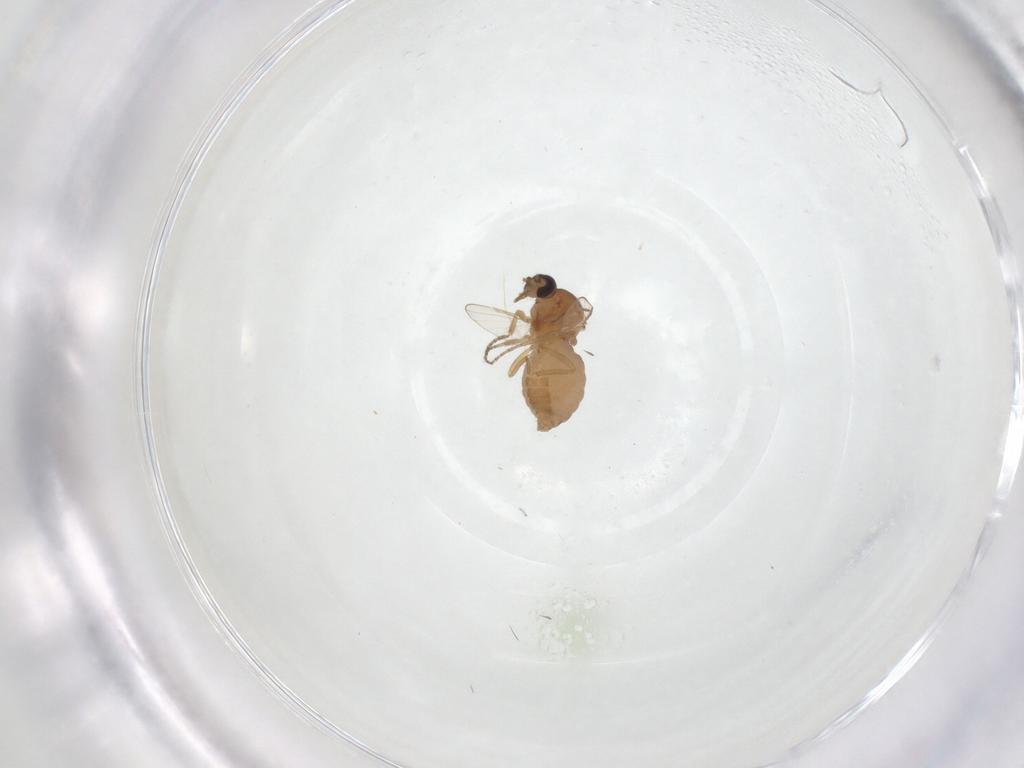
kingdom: Animalia
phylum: Arthropoda
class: Insecta
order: Diptera
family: Ceratopogonidae
